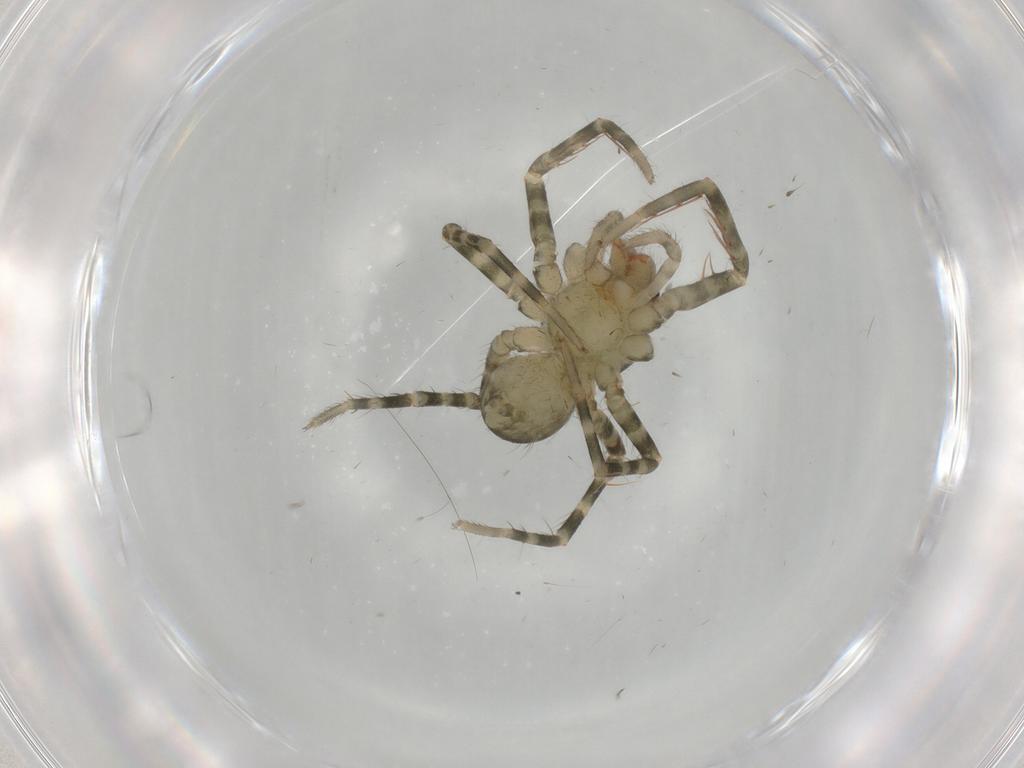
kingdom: Animalia
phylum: Arthropoda
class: Arachnida
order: Araneae
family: Ctenidae
